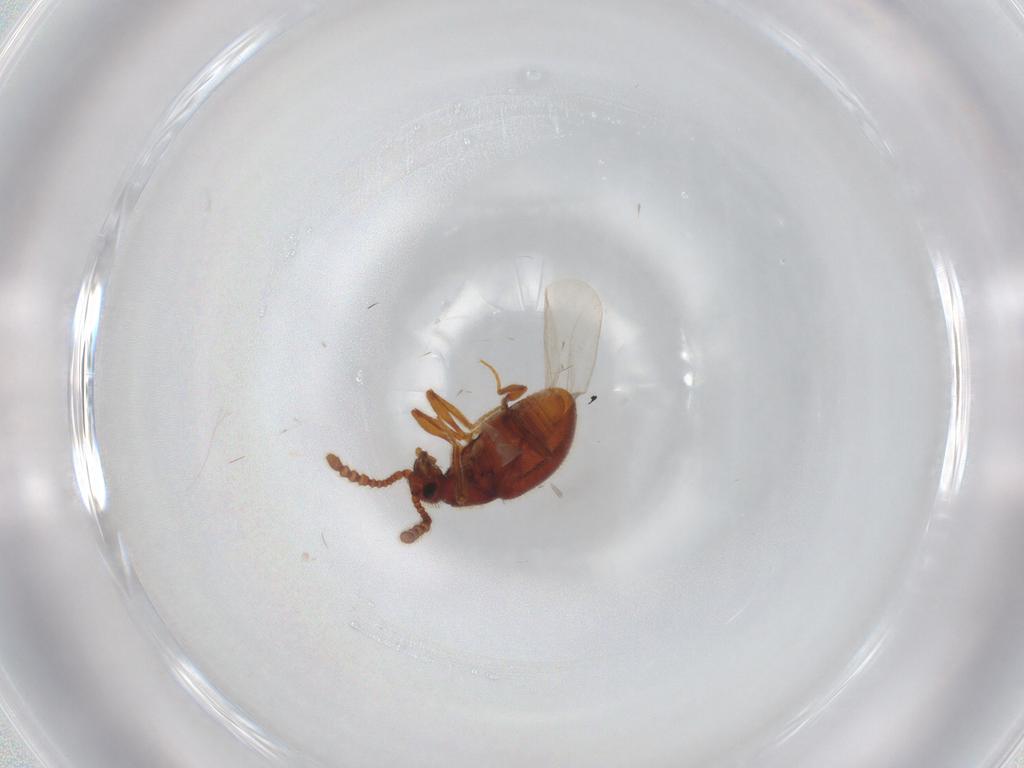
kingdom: Animalia
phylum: Arthropoda
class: Insecta
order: Coleoptera
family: Staphylinidae
